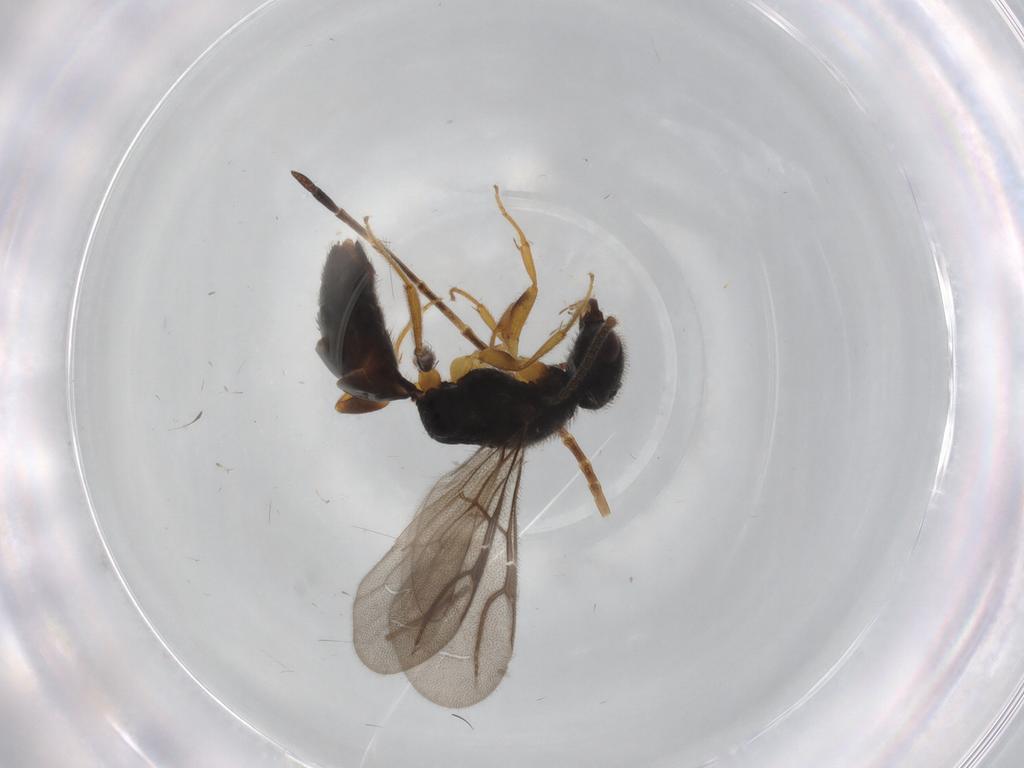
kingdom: Animalia
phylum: Arthropoda
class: Insecta
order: Hymenoptera
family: Bethylidae
